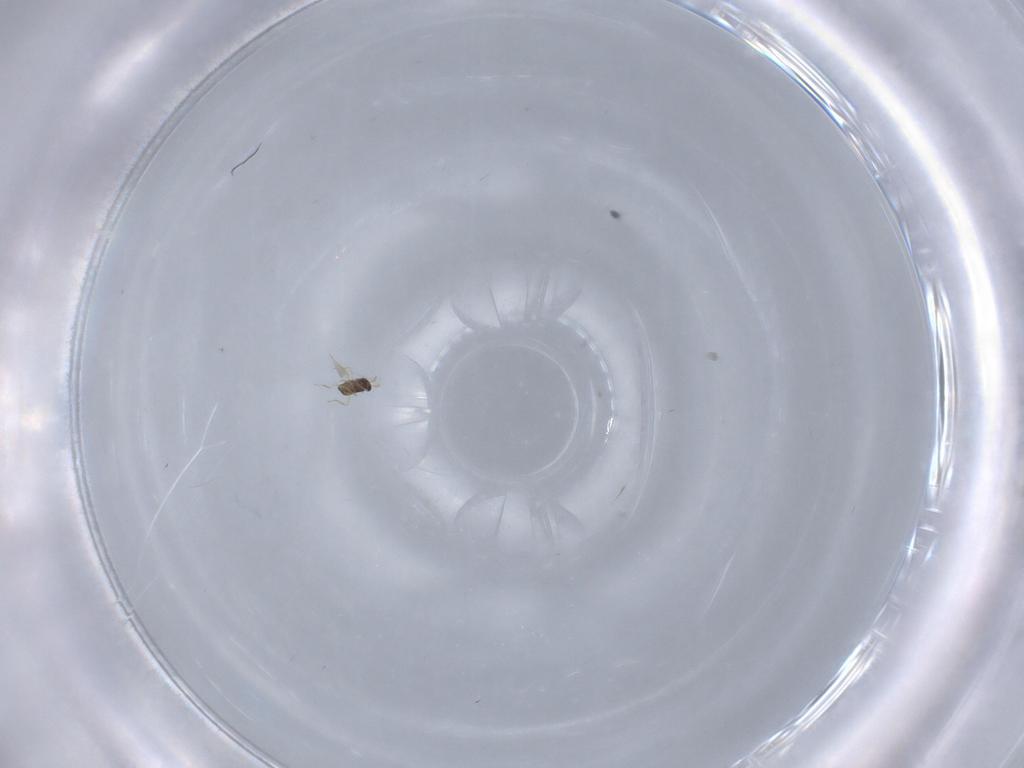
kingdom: Animalia
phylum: Arthropoda
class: Insecta
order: Hymenoptera
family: Mymaridae
